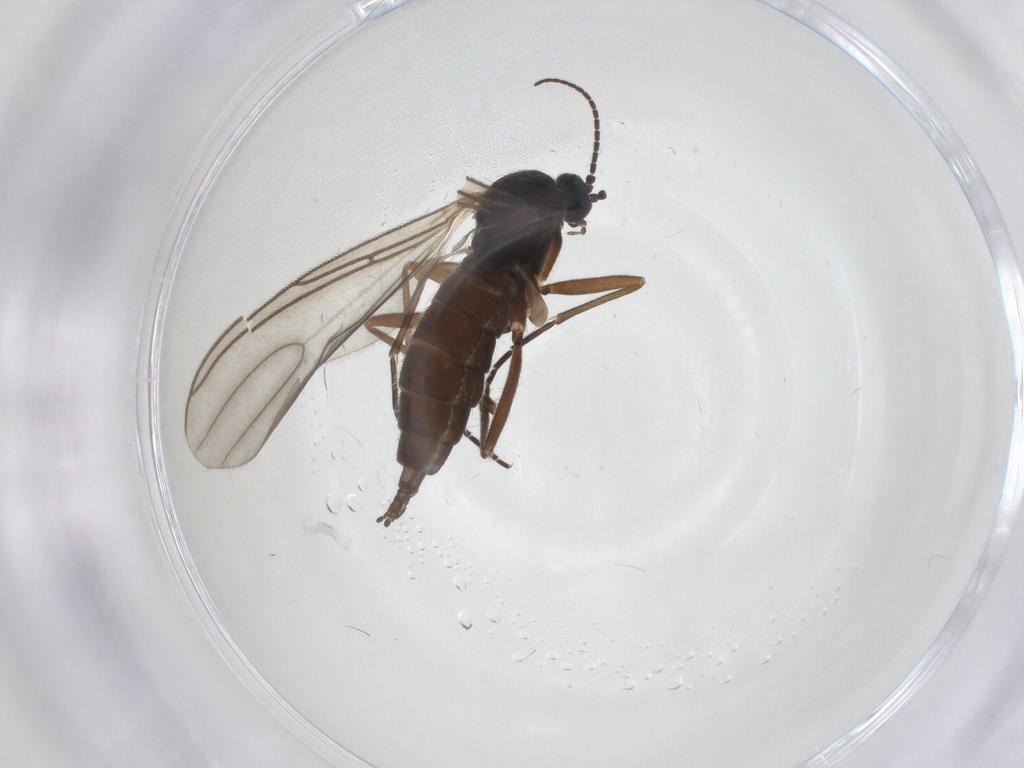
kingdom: Animalia
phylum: Arthropoda
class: Insecta
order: Diptera
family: Sciaridae
